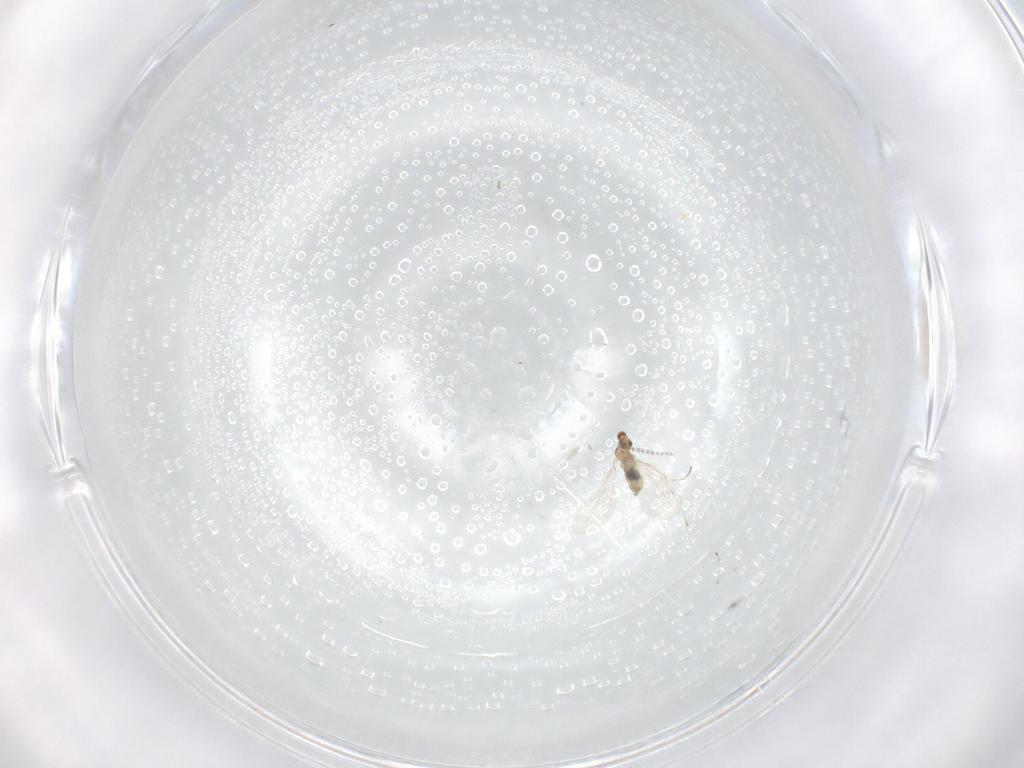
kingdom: Animalia
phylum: Arthropoda
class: Insecta
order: Diptera
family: Cecidomyiidae
